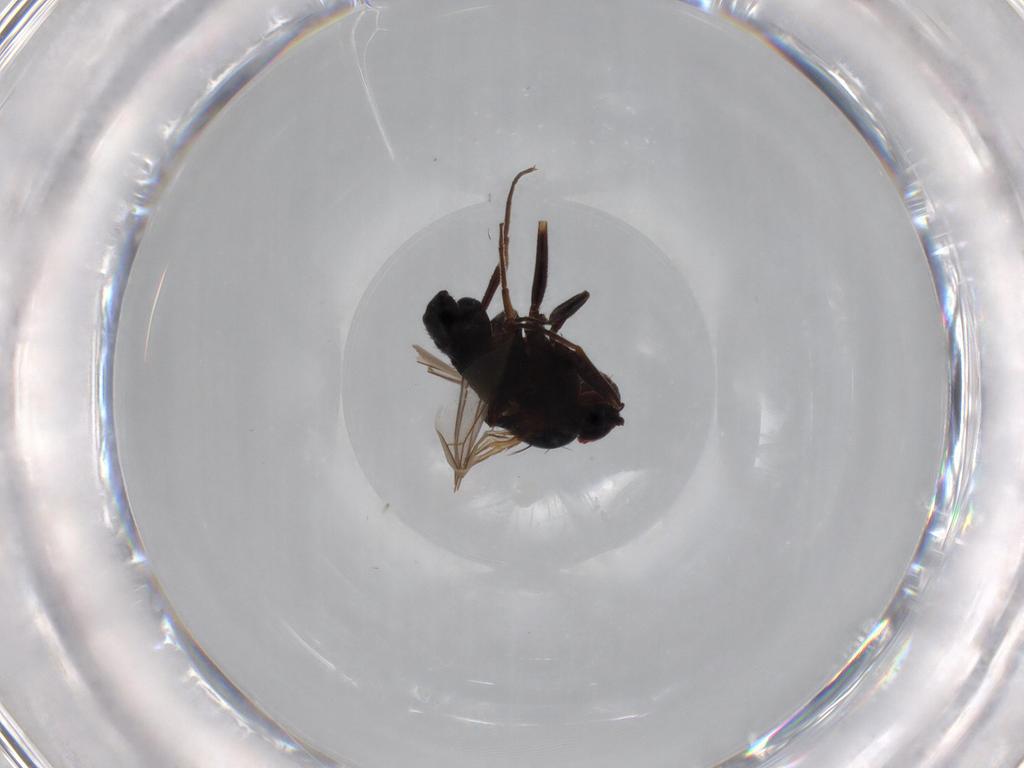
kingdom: Animalia
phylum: Arthropoda
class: Insecta
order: Diptera
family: Dolichopodidae
